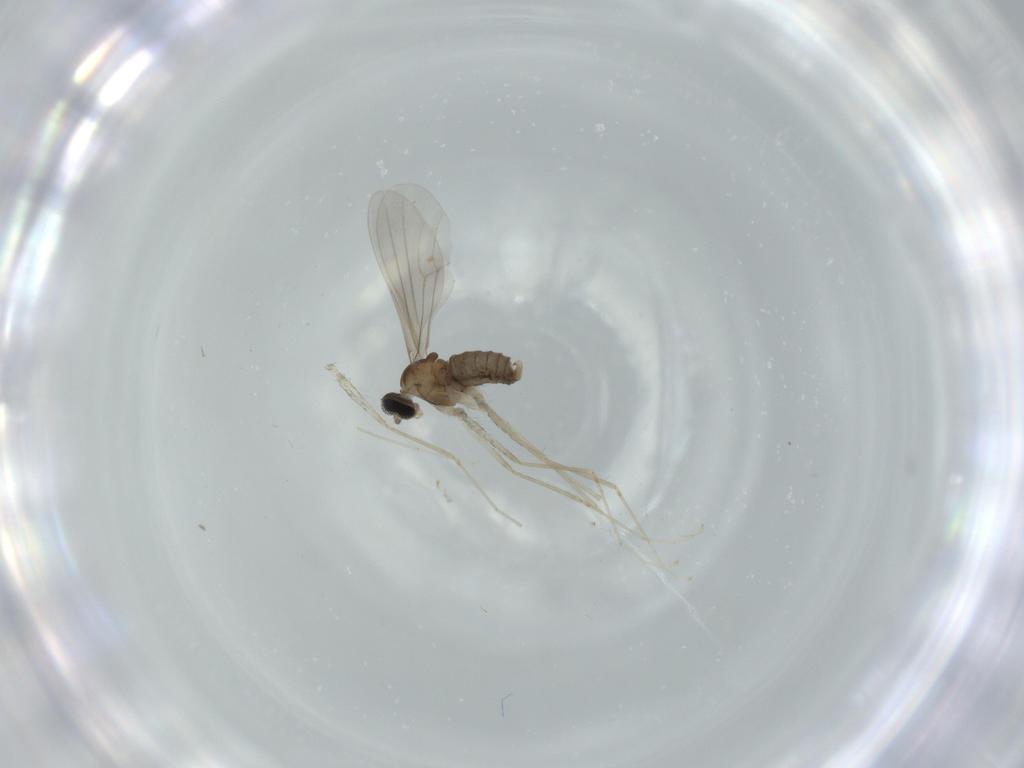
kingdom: Animalia
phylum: Arthropoda
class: Insecta
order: Diptera
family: Cecidomyiidae
